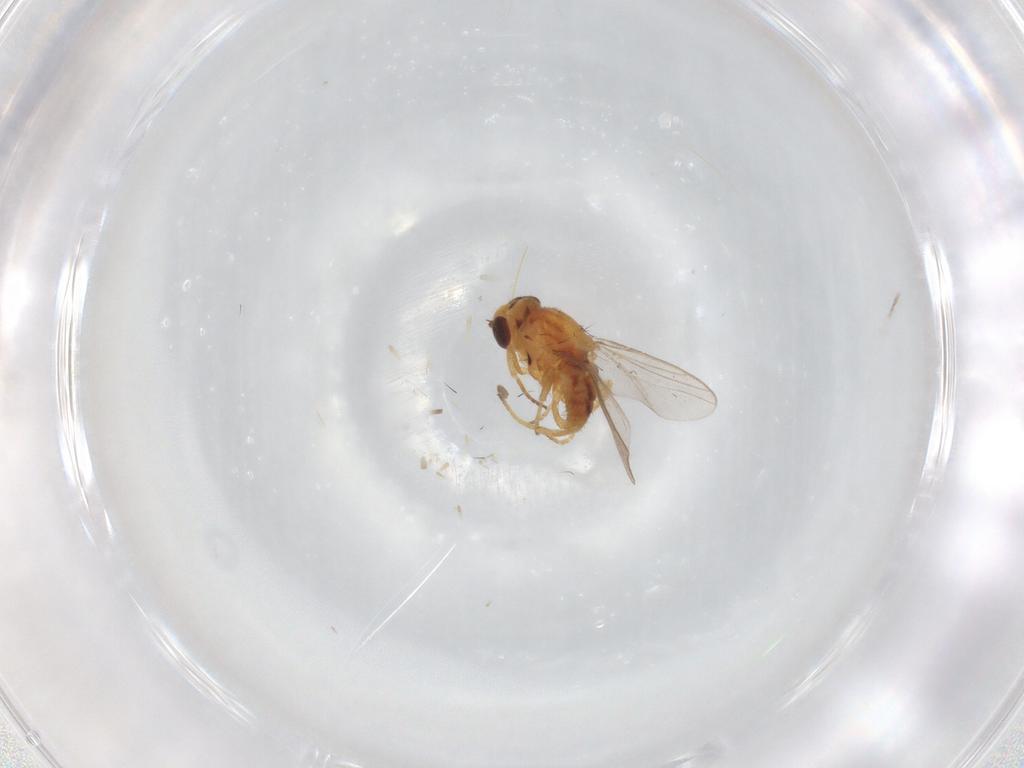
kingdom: Animalia
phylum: Arthropoda
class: Insecta
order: Diptera
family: Chloropidae
